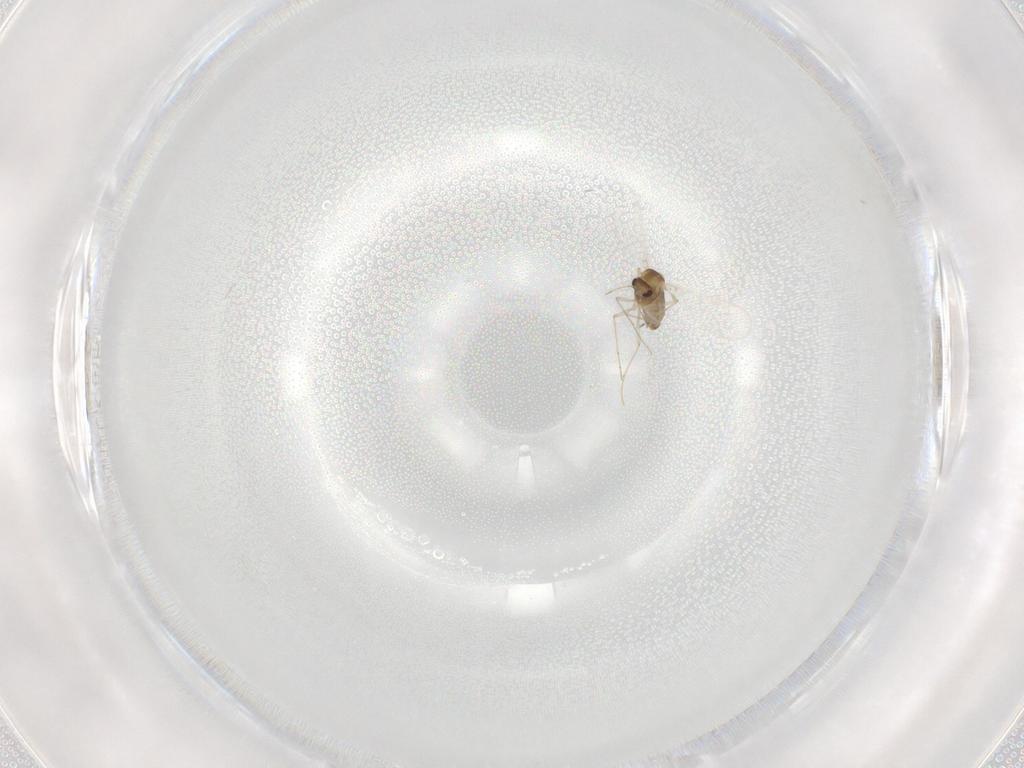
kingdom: Animalia
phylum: Arthropoda
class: Insecta
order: Diptera
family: Chironomidae
